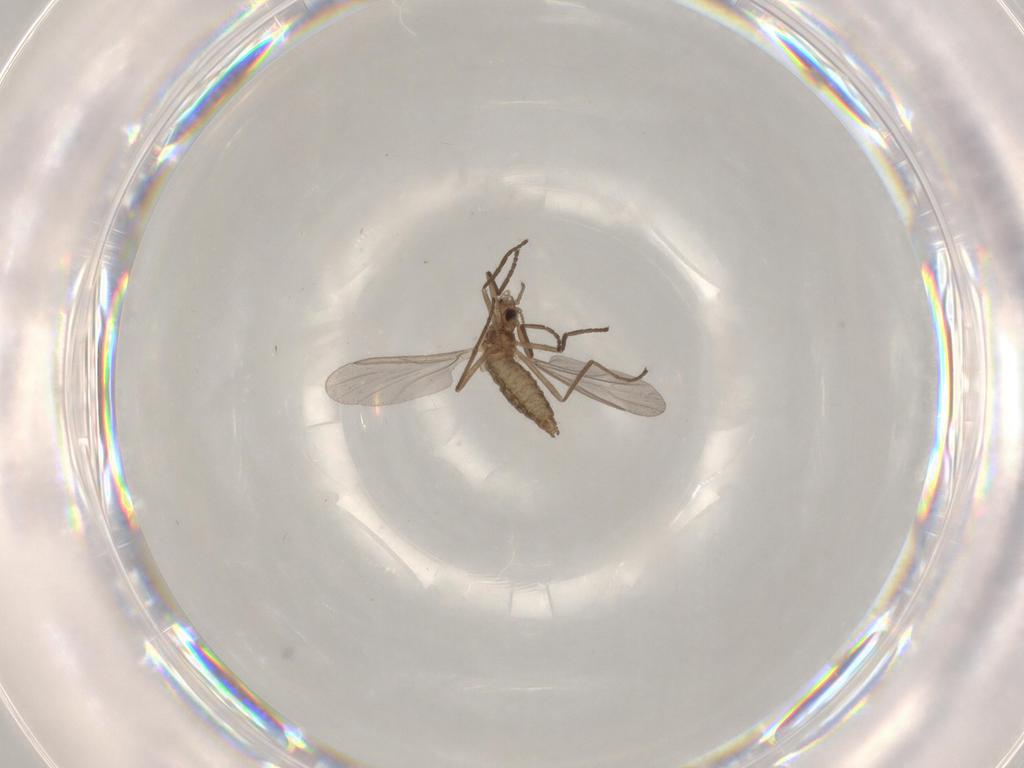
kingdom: Animalia
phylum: Arthropoda
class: Insecta
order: Diptera
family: Cecidomyiidae
